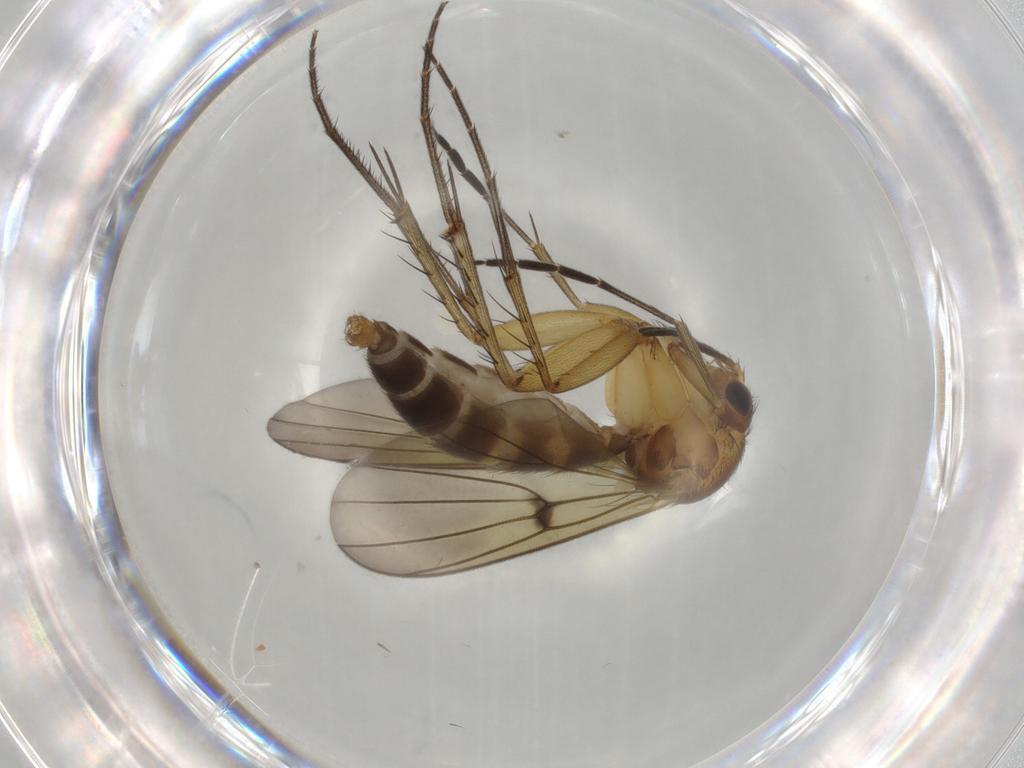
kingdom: Animalia
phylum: Arthropoda
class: Insecta
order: Diptera
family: Mycetophilidae
